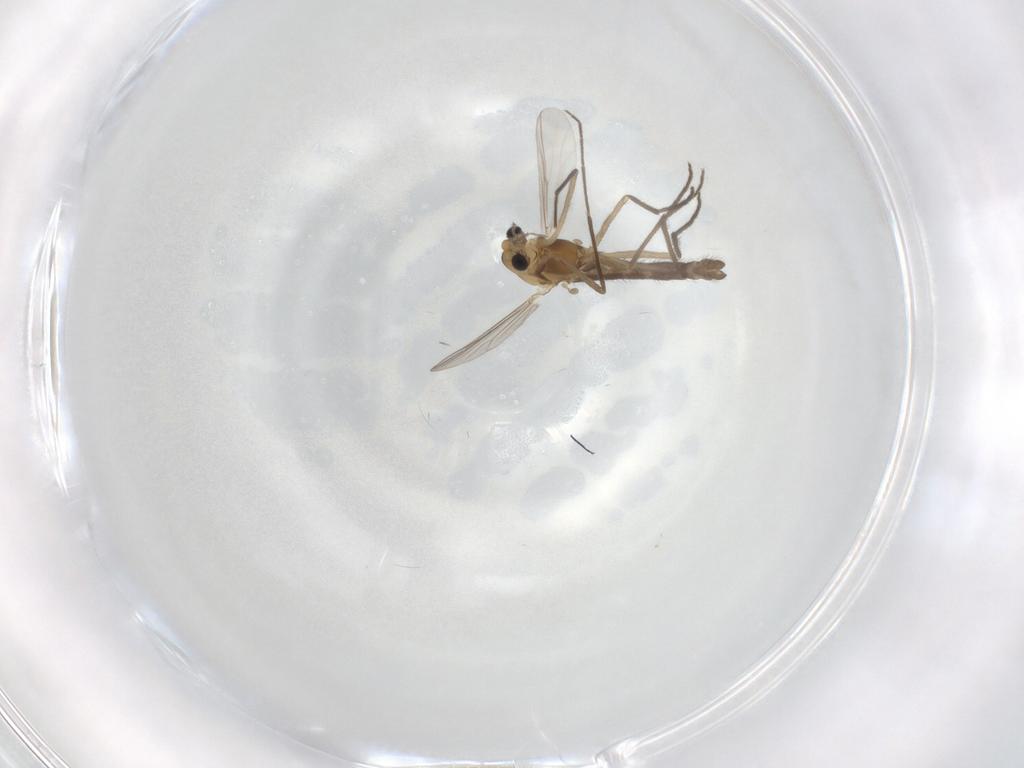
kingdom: Animalia
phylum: Arthropoda
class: Insecta
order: Diptera
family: Chironomidae
